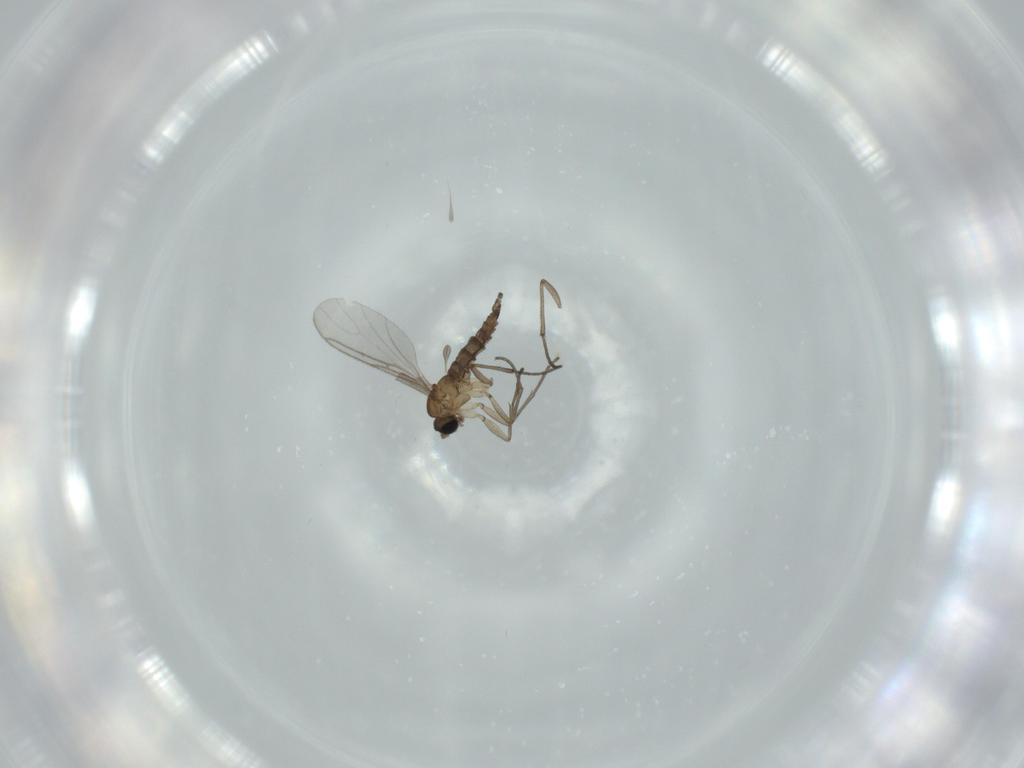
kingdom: Animalia
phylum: Arthropoda
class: Insecta
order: Diptera
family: Sciaridae
